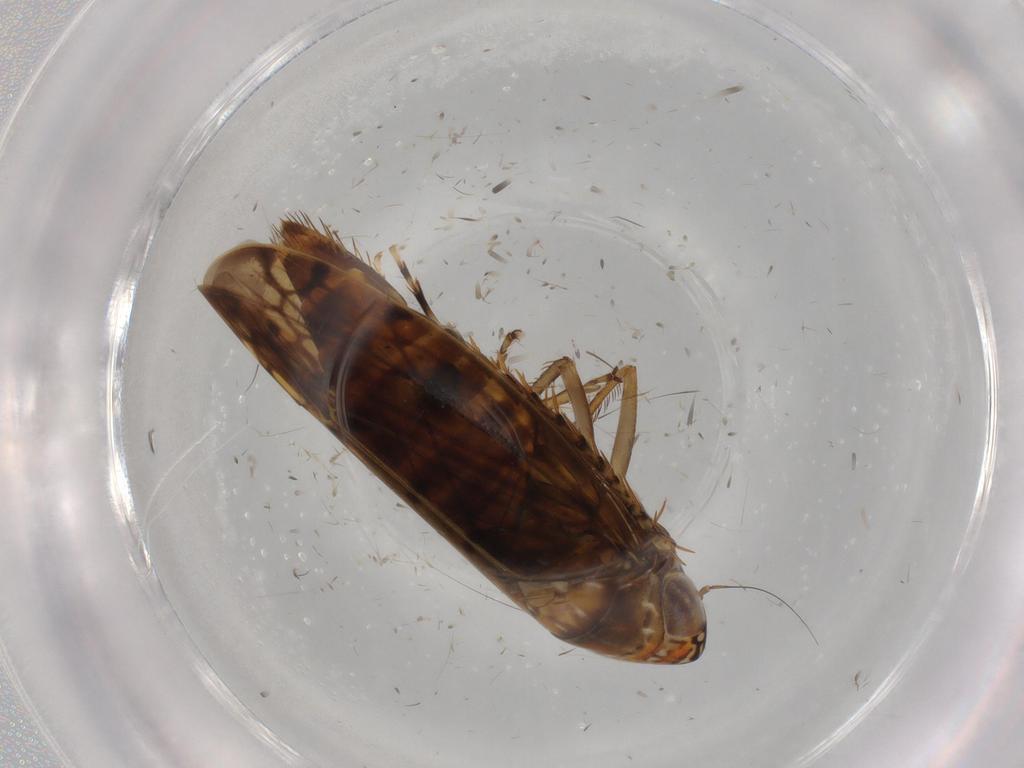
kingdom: Animalia
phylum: Arthropoda
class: Insecta
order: Hemiptera
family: Cicadellidae
